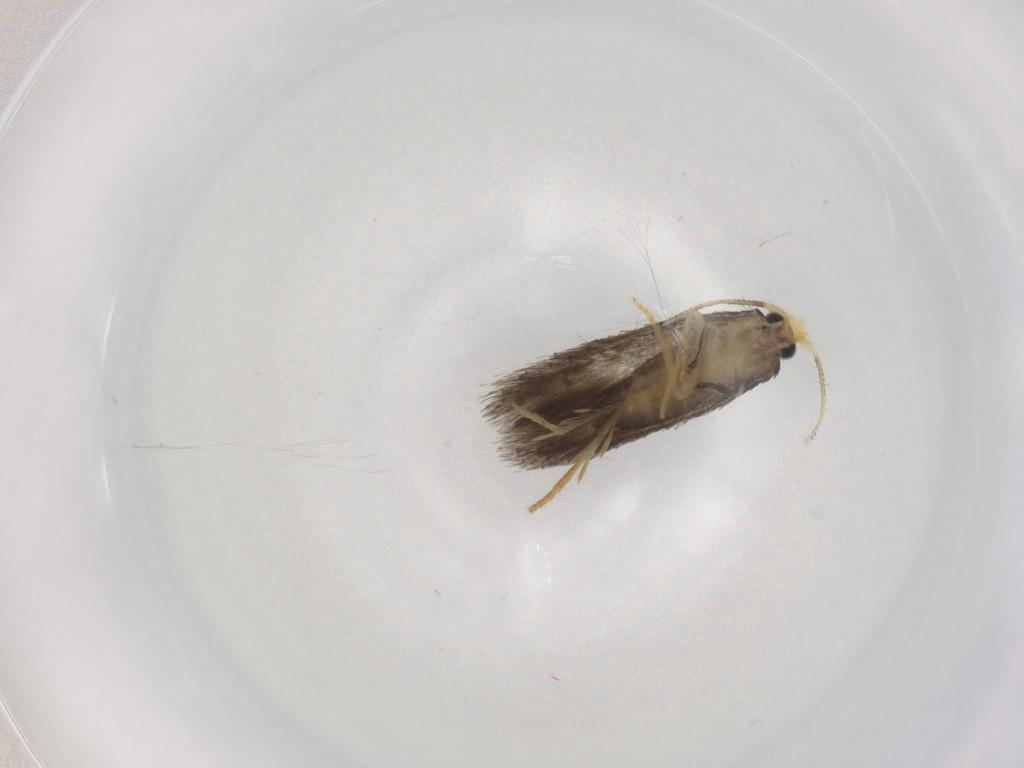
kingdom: Animalia
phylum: Arthropoda
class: Insecta
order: Lepidoptera
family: Nepticulidae
